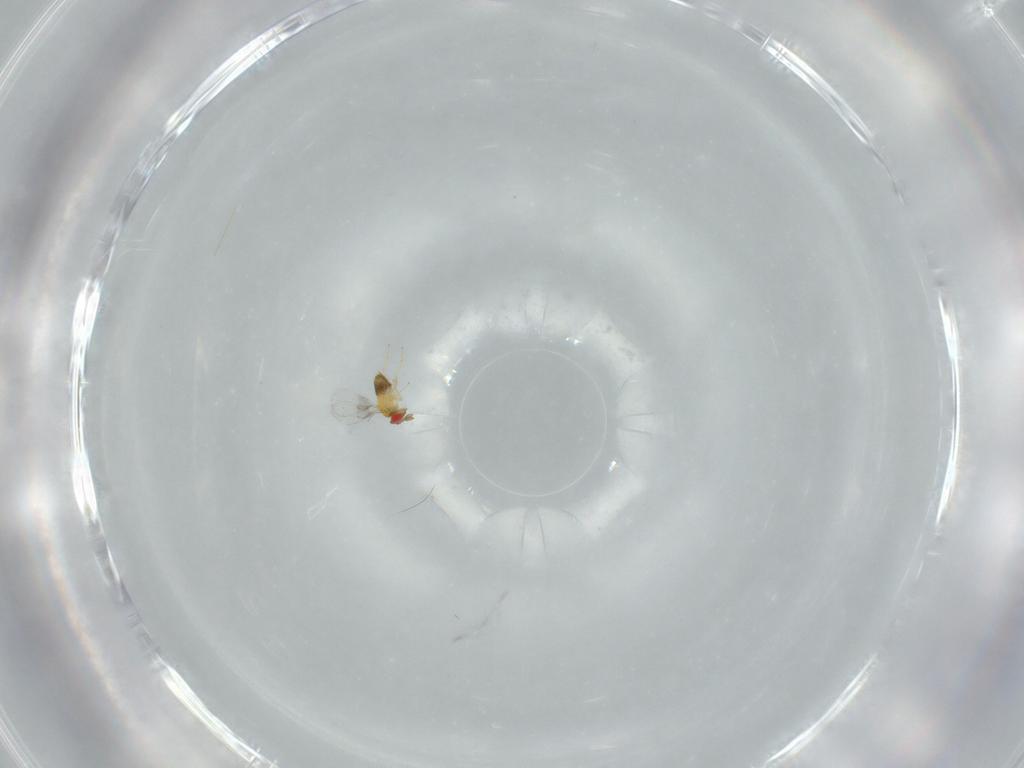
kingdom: Animalia
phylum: Arthropoda
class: Insecta
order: Hymenoptera
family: Trichogrammatidae
